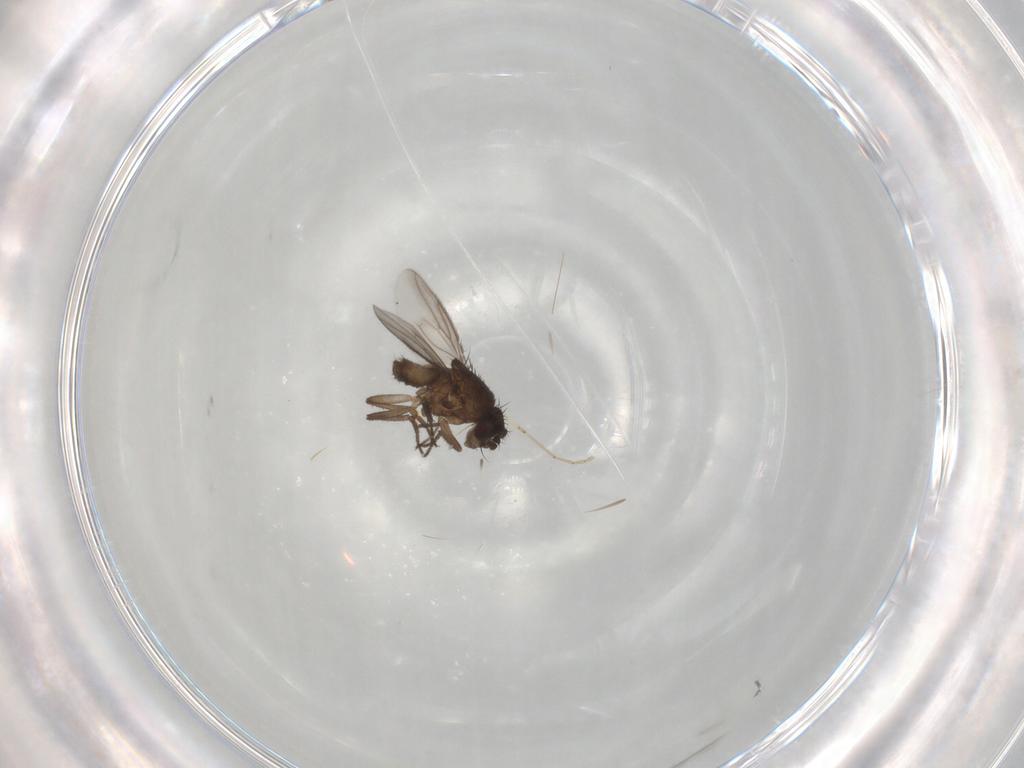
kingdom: Animalia
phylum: Arthropoda
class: Insecta
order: Diptera
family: Sphaeroceridae
